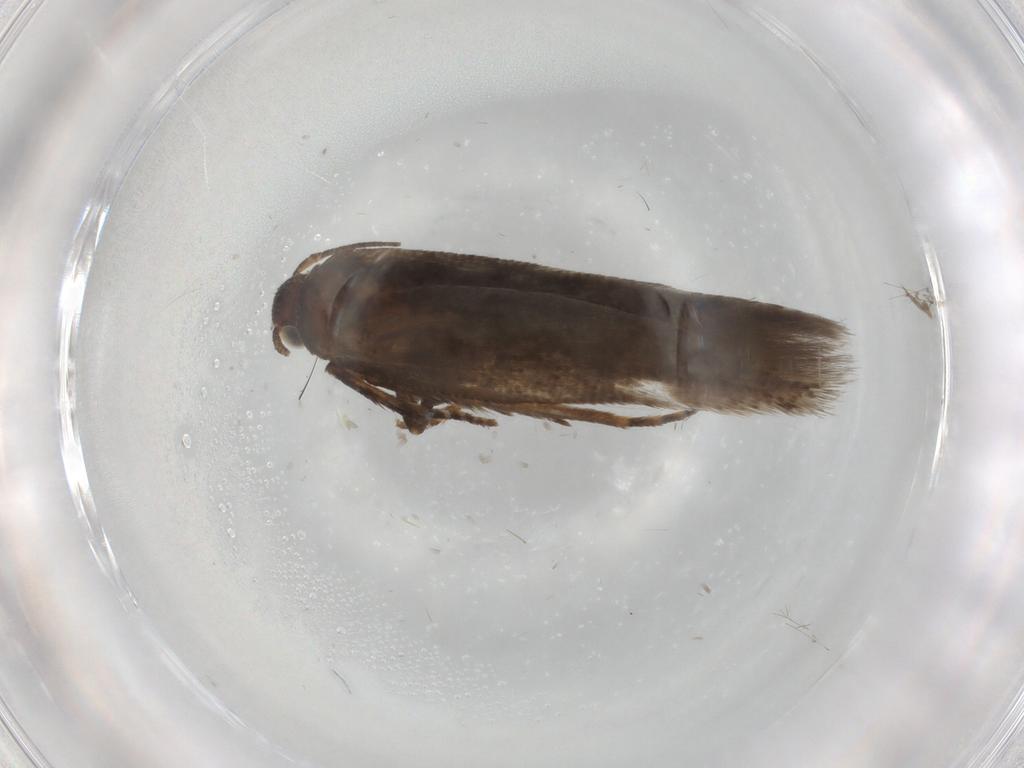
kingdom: Animalia
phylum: Arthropoda
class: Insecta
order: Lepidoptera
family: Gelechiidae
